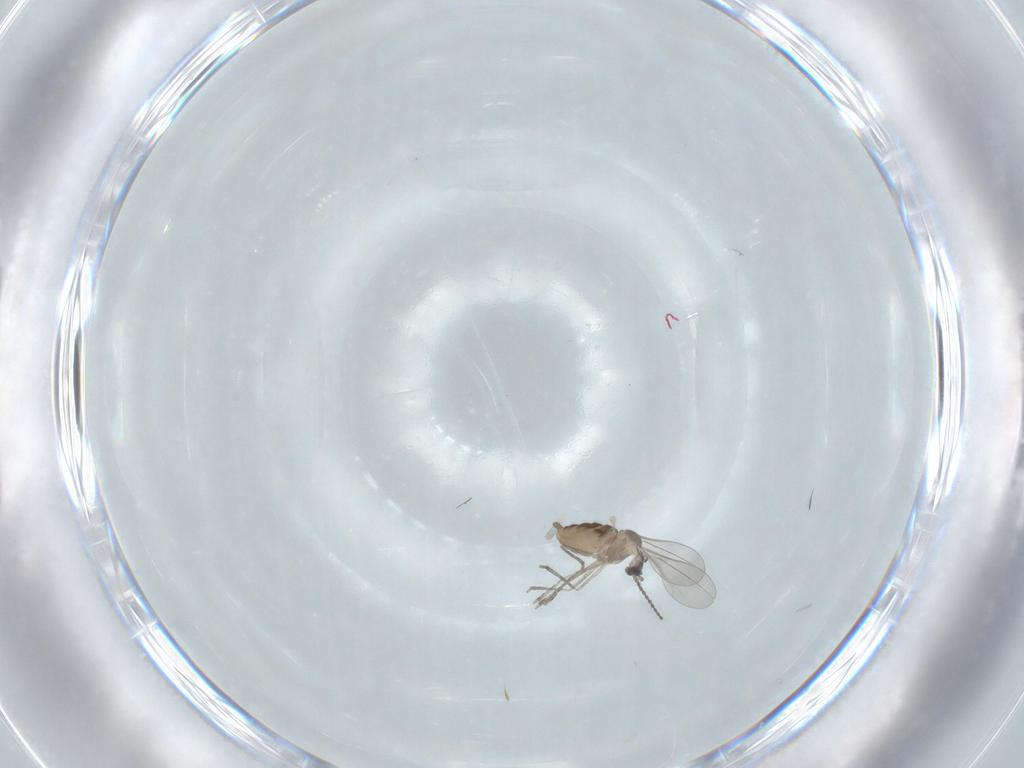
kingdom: Animalia
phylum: Arthropoda
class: Insecta
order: Diptera
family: Cecidomyiidae
